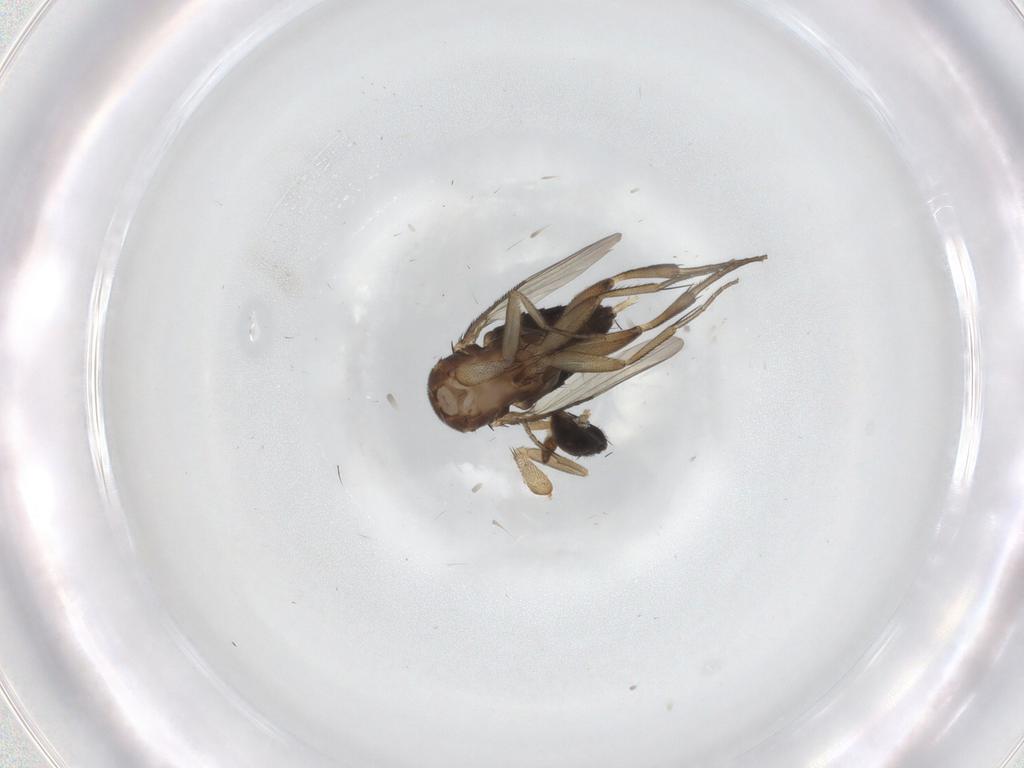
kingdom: Animalia
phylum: Arthropoda
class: Insecta
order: Diptera
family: Phoridae
